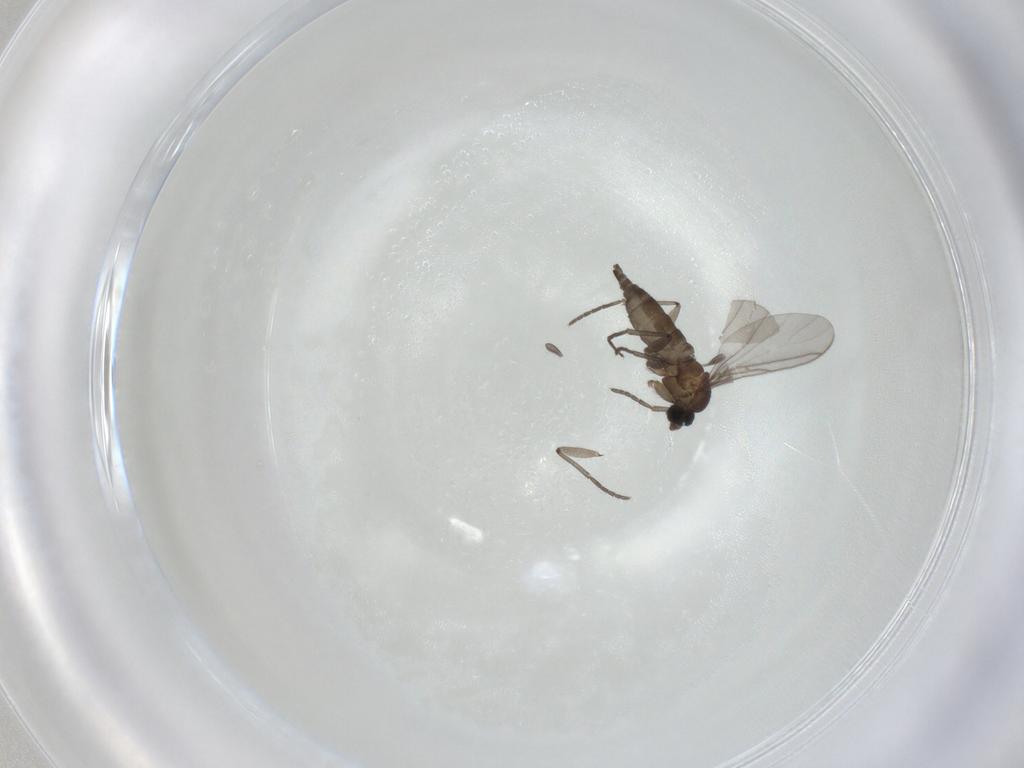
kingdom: Animalia
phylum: Arthropoda
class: Insecta
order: Diptera
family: Sciaridae
